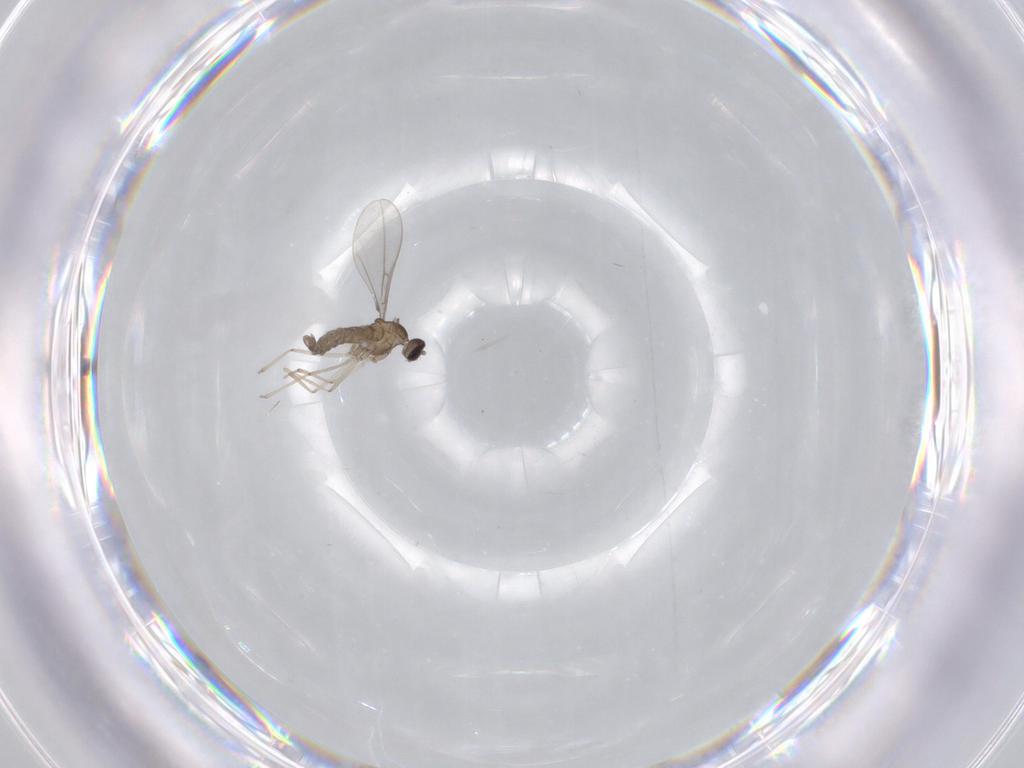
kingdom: Animalia
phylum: Arthropoda
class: Insecta
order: Diptera
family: Cecidomyiidae
